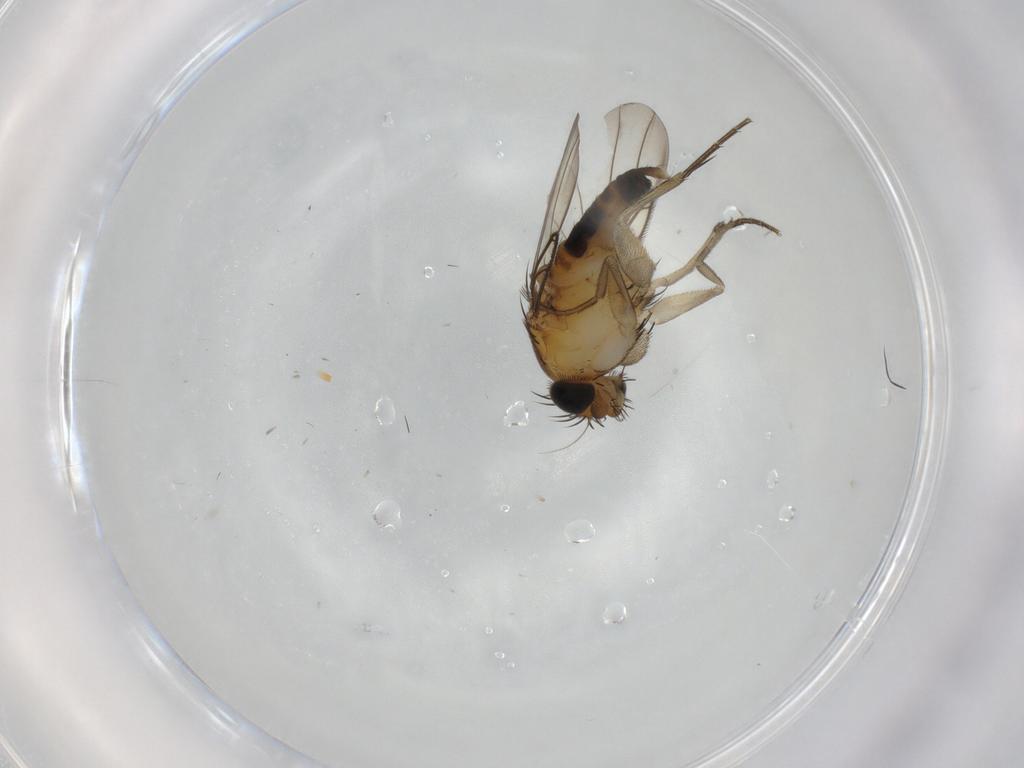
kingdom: Animalia
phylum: Arthropoda
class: Insecta
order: Diptera
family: Phoridae
